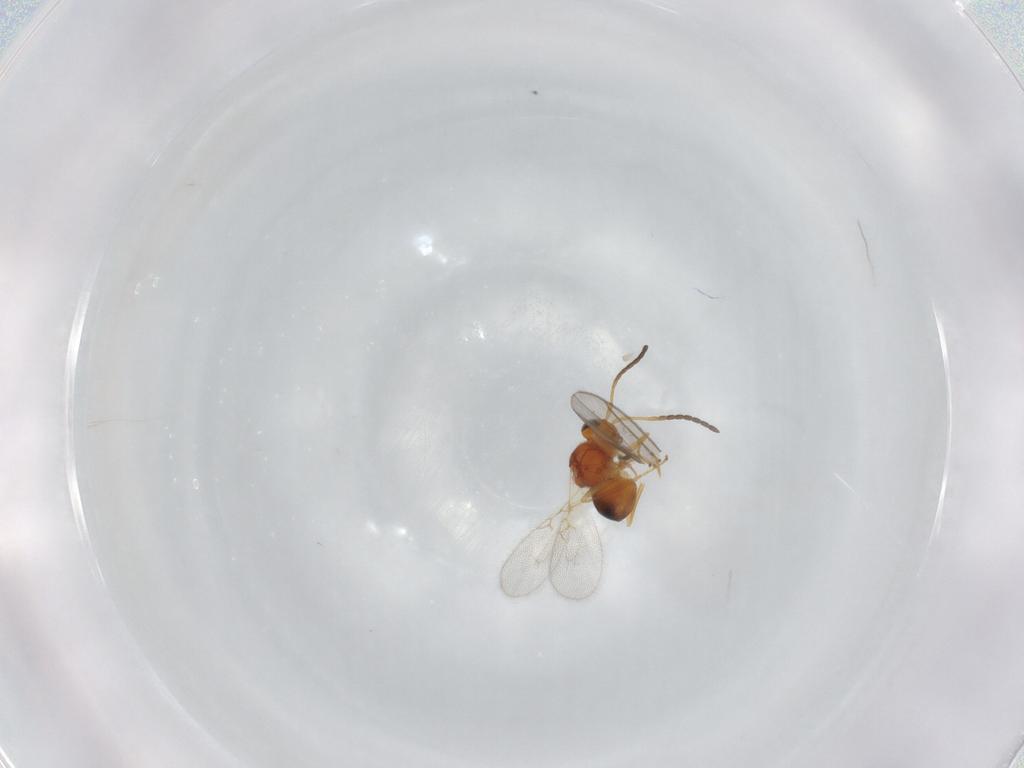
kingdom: Animalia
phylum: Arthropoda
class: Insecta
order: Hymenoptera
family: Figitidae
